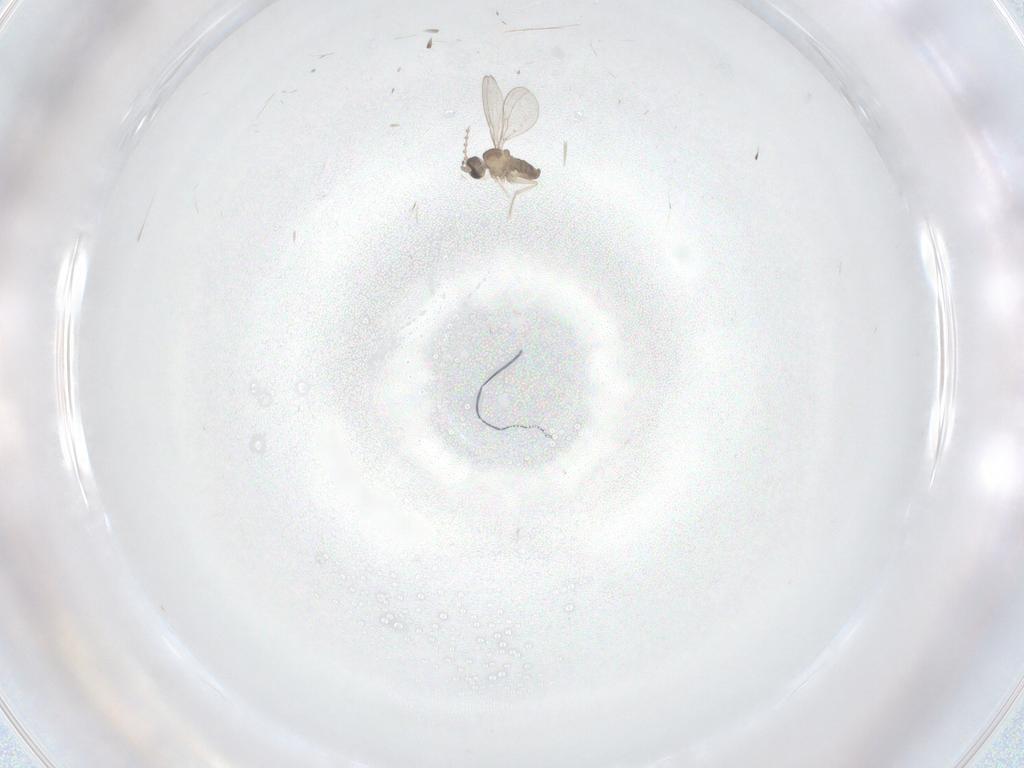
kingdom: Animalia
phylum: Arthropoda
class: Insecta
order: Diptera
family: Cecidomyiidae
